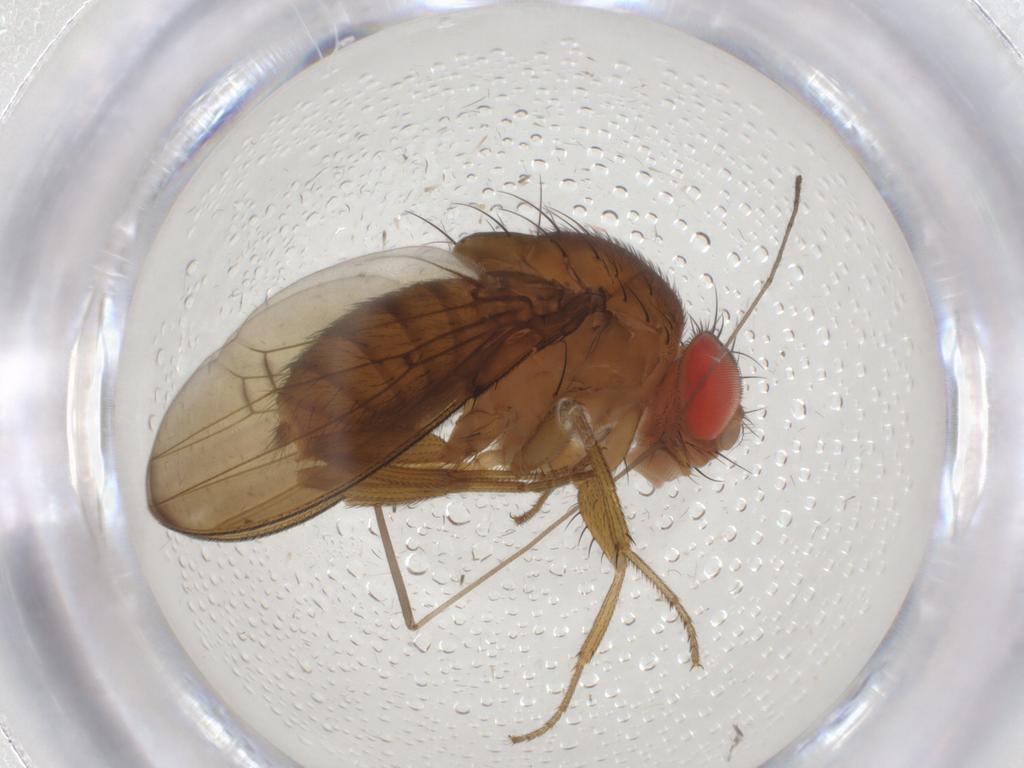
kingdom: Animalia
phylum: Arthropoda
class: Insecta
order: Diptera
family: Drosophilidae
